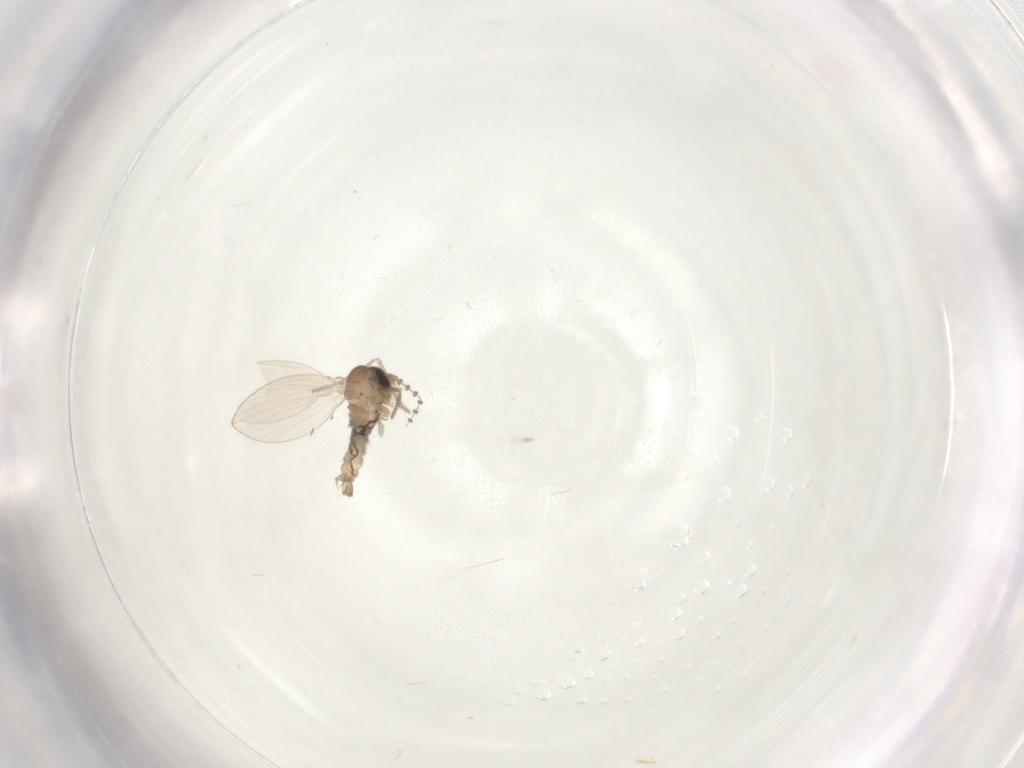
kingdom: Animalia
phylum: Arthropoda
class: Insecta
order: Diptera
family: Psychodidae
